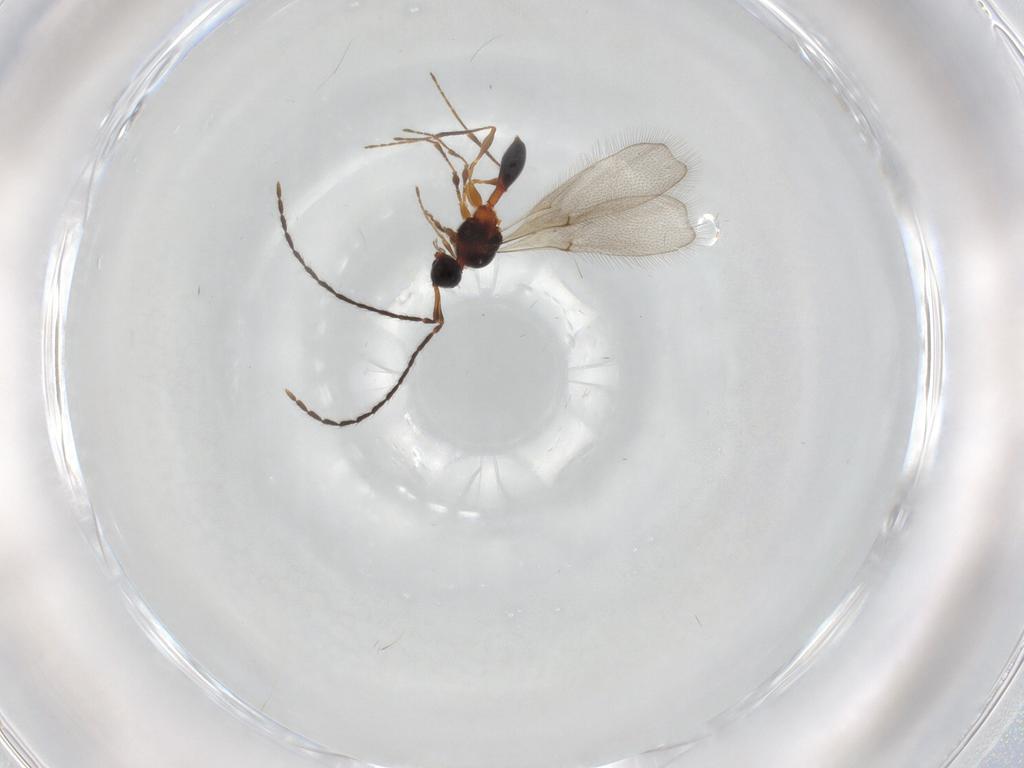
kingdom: Animalia
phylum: Arthropoda
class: Insecta
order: Hymenoptera
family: Diapriidae
